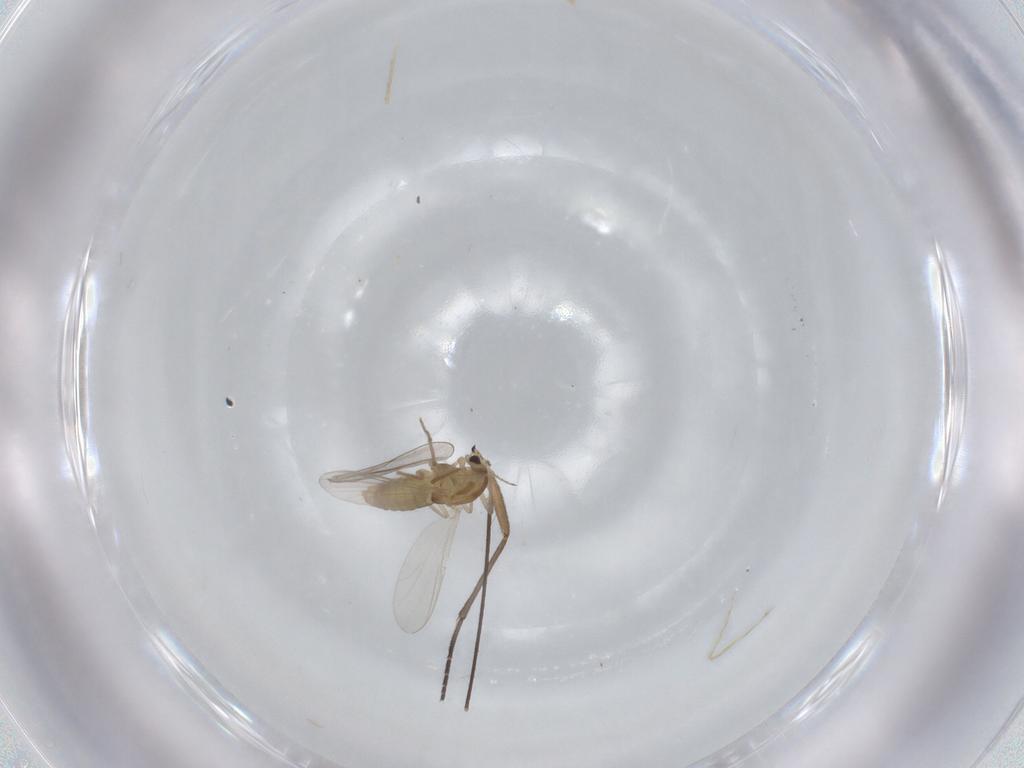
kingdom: Animalia
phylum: Arthropoda
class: Insecta
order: Diptera
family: Chironomidae
